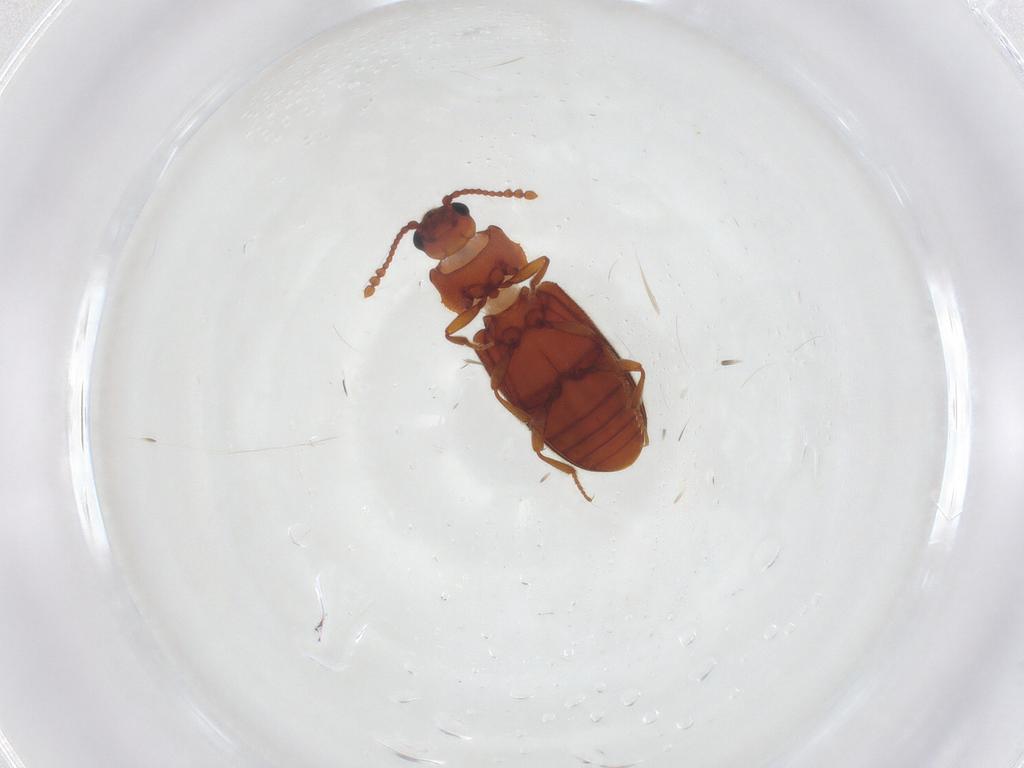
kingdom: Animalia
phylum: Arthropoda
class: Insecta
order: Coleoptera
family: Cryptophagidae
